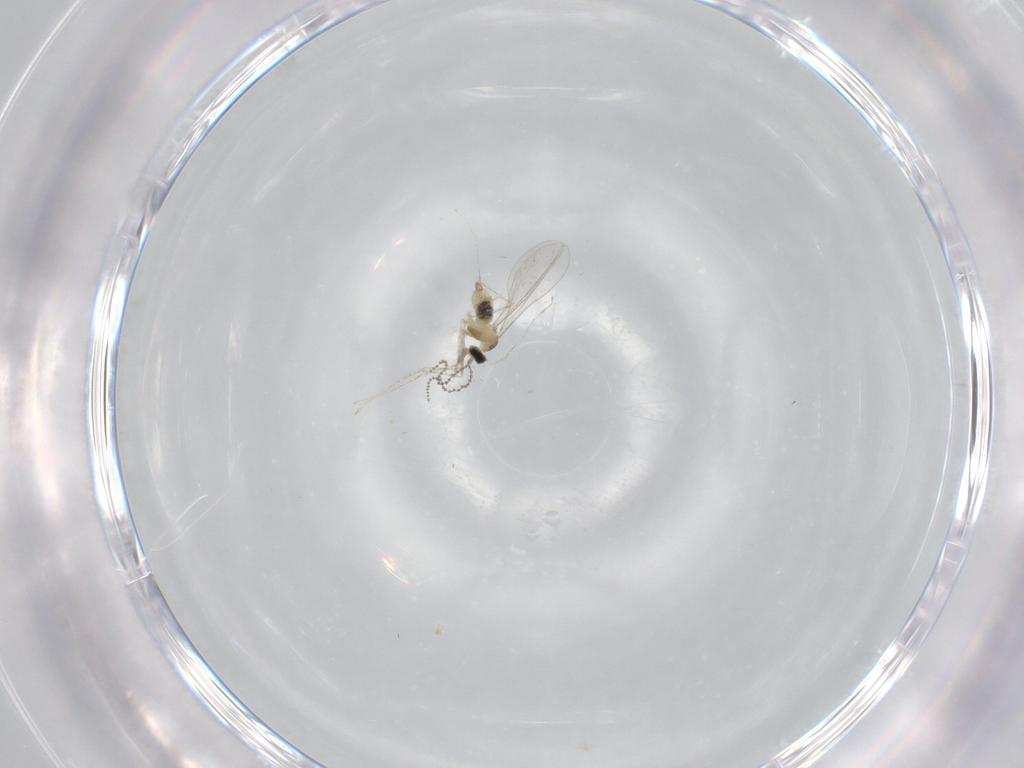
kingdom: Animalia
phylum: Arthropoda
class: Insecta
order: Diptera
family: Cecidomyiidae
